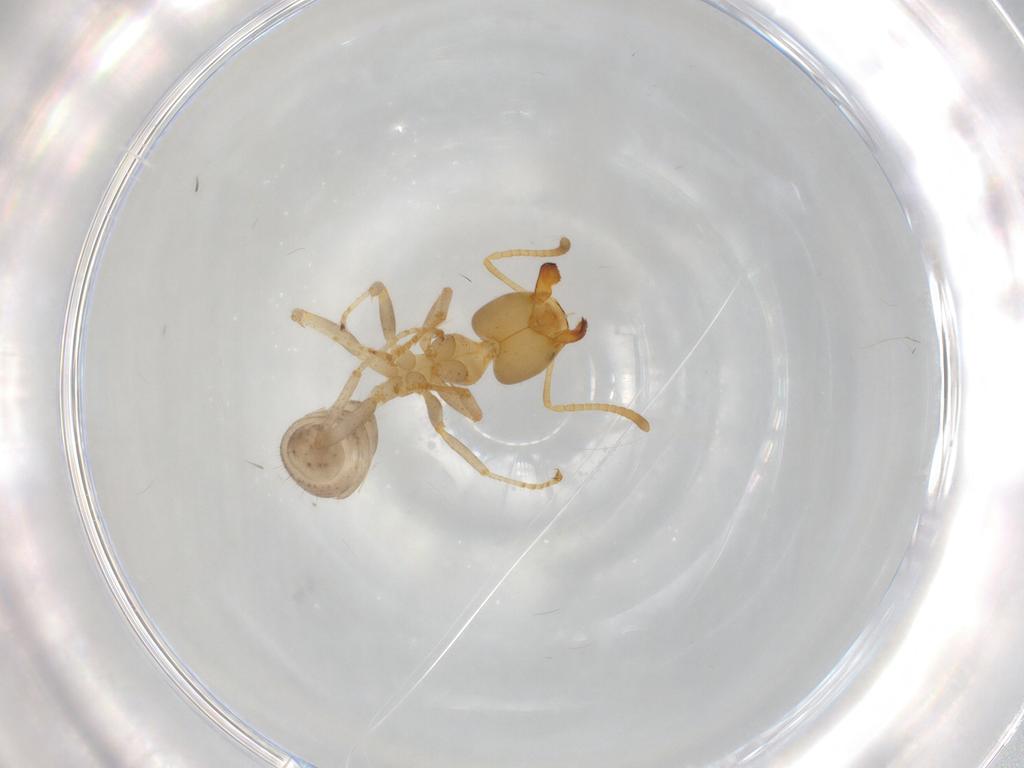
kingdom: Animalia
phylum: Arthropoda
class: Insecta
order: Hymenoptera
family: Formicidae
